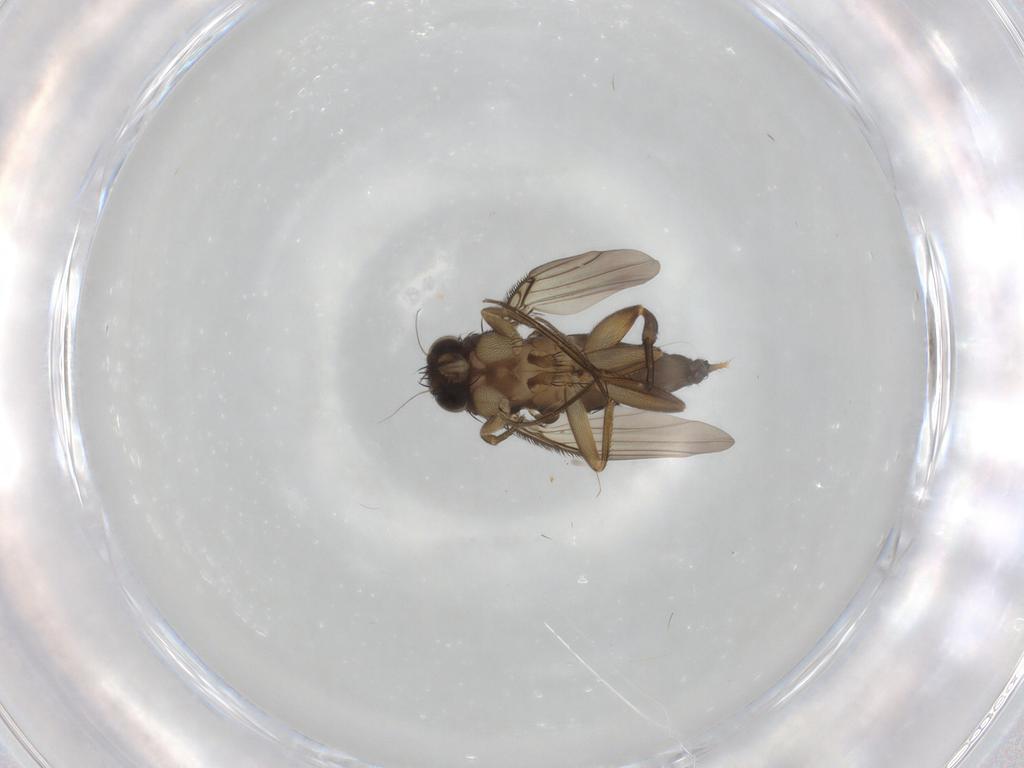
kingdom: Animalia
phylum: Arthropoda
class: Insecta
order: Diptera
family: Phoridae
